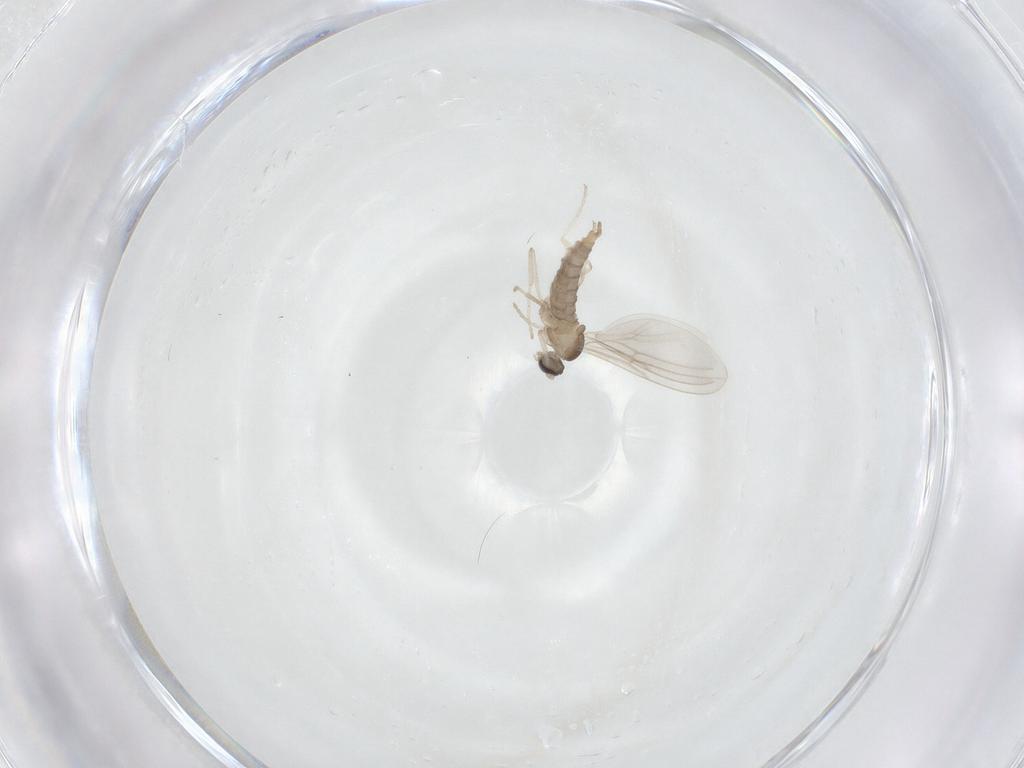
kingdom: Animalia
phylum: Arthropoda
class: Insecta
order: Diptera
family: Cecidomyiidae
